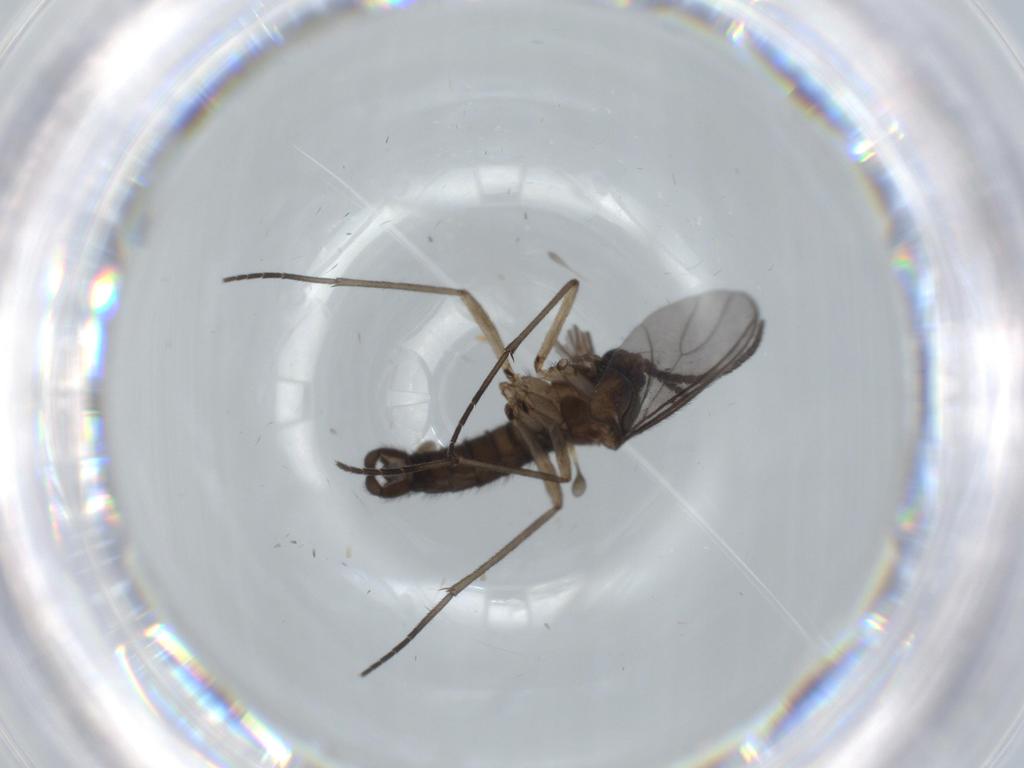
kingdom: Animalia
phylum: Arthropoda
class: Insecta
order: Diptera
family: Sciaridae
